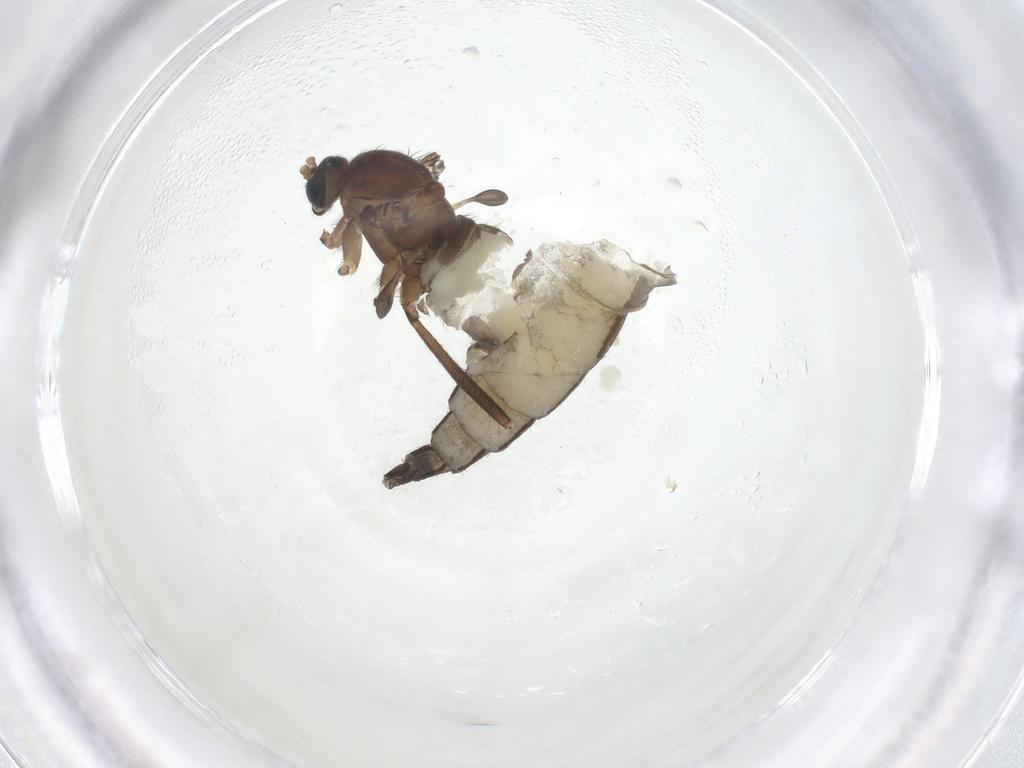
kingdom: Animalia
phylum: Arthropoda
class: Insecta
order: Diptera
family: Sciaridae
